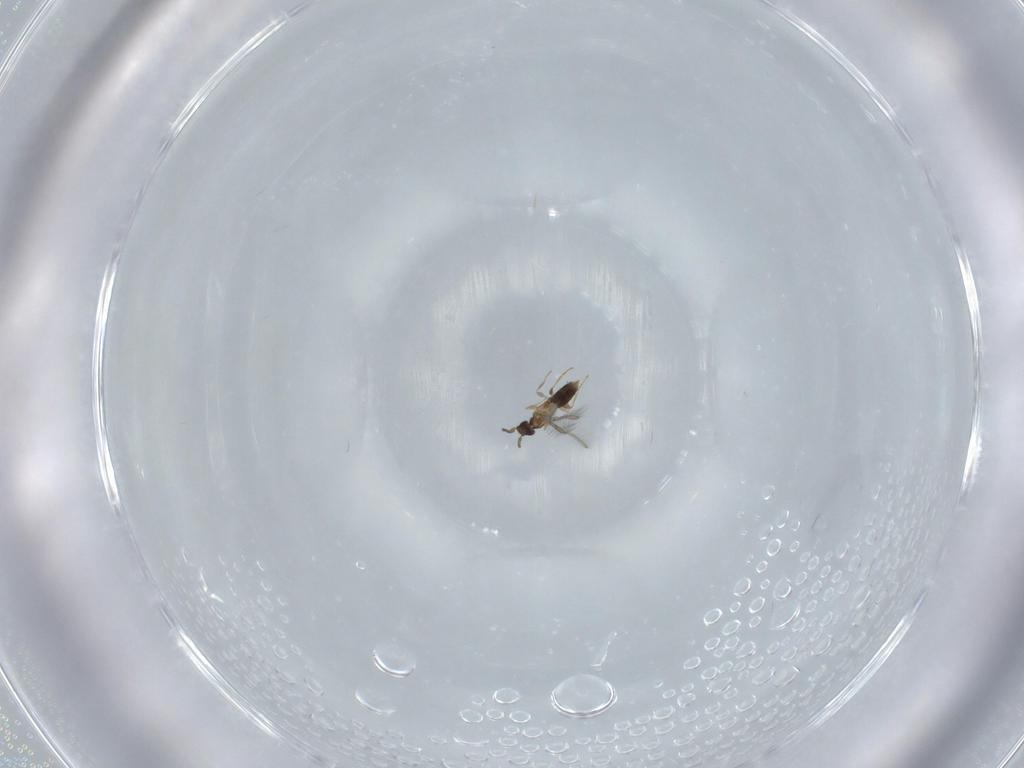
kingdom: Animalia
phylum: Arthropoda
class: Insecta
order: Hymenoptera
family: Mymaridae
